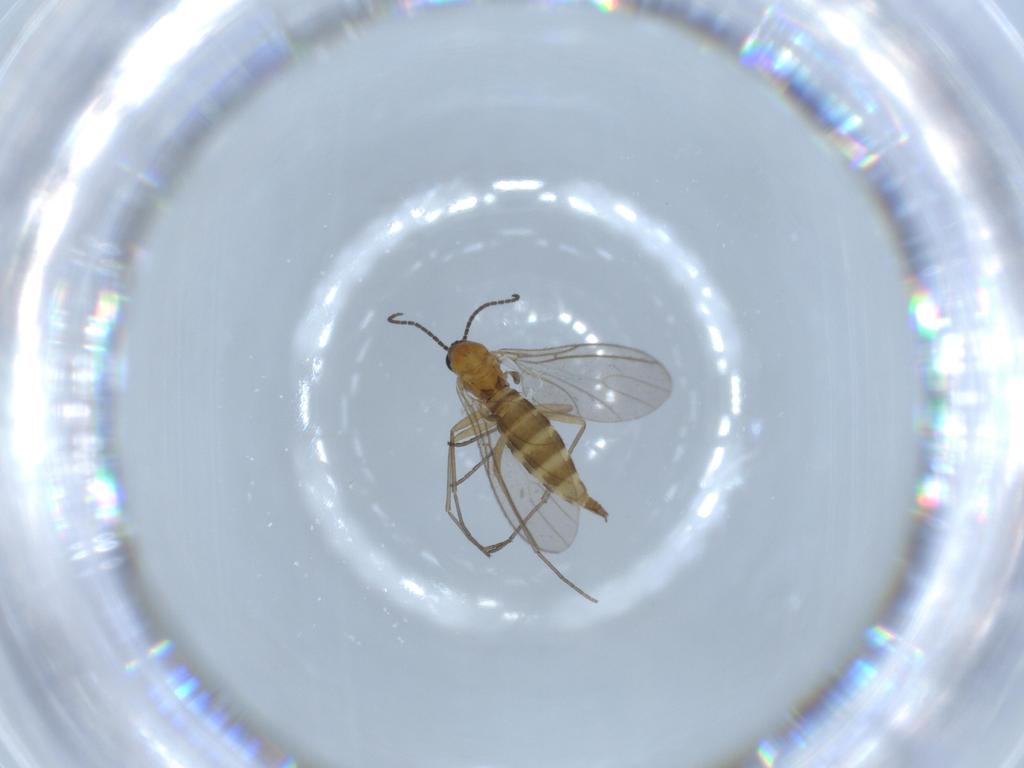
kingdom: Animalia
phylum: Arthropoda
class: Insecta
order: Diptera
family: Sciaridae
